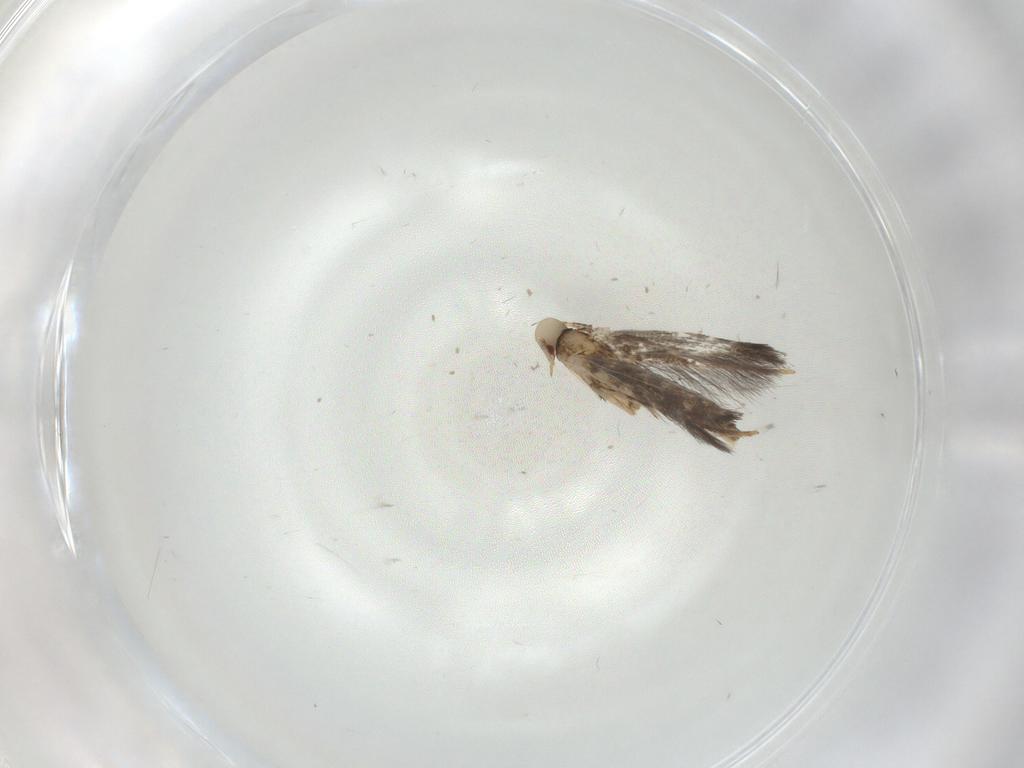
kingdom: Animalia
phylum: Arthropoda
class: Insecta
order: Lepidoptera
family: Gracillariidae
